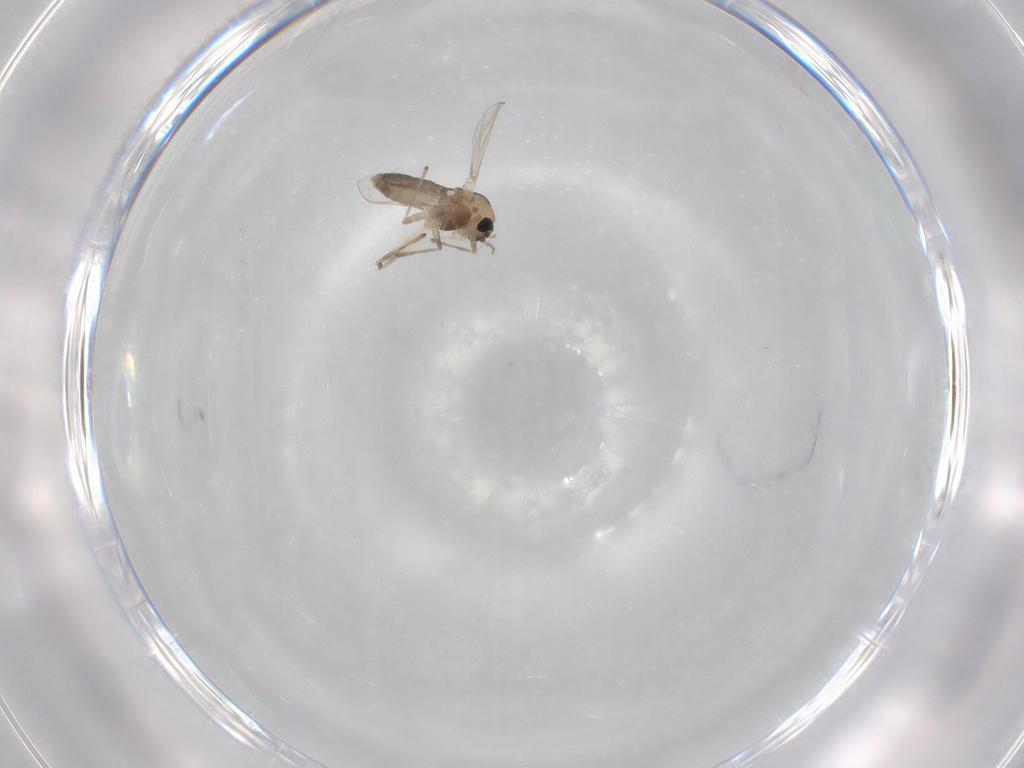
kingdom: Animalia
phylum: Arthropoda
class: Insecta
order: Diptera
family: Chironomidae
